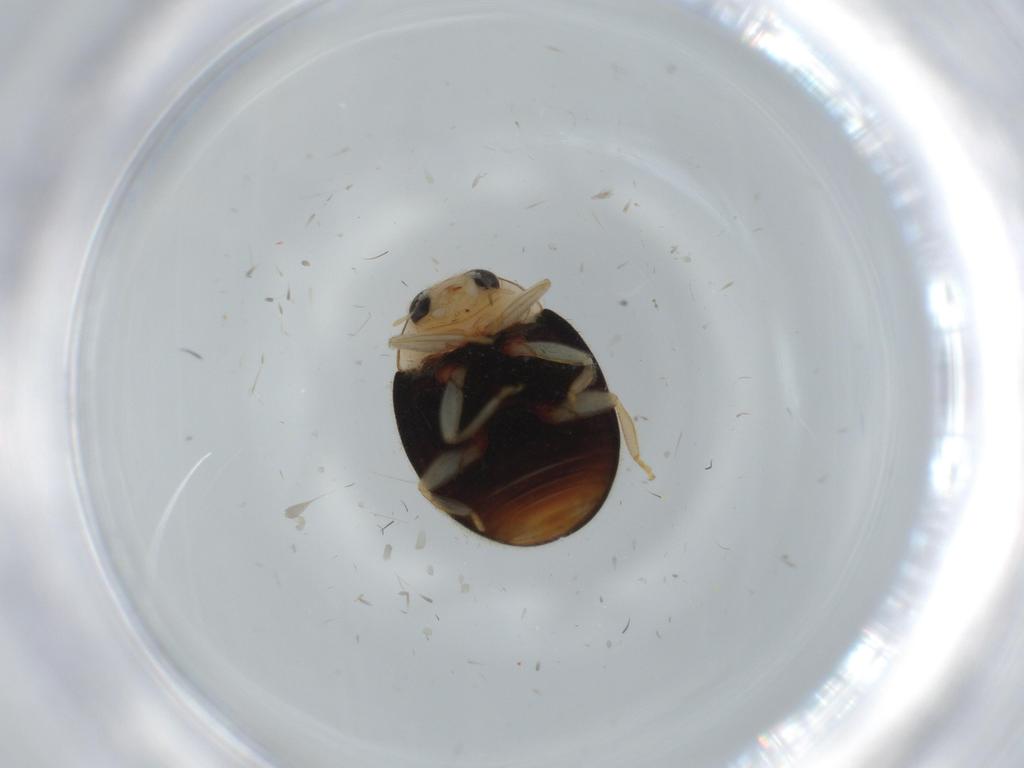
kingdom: Animalia
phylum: Arthropoda
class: Insecta
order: Coleoptera
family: Coccinellidae
